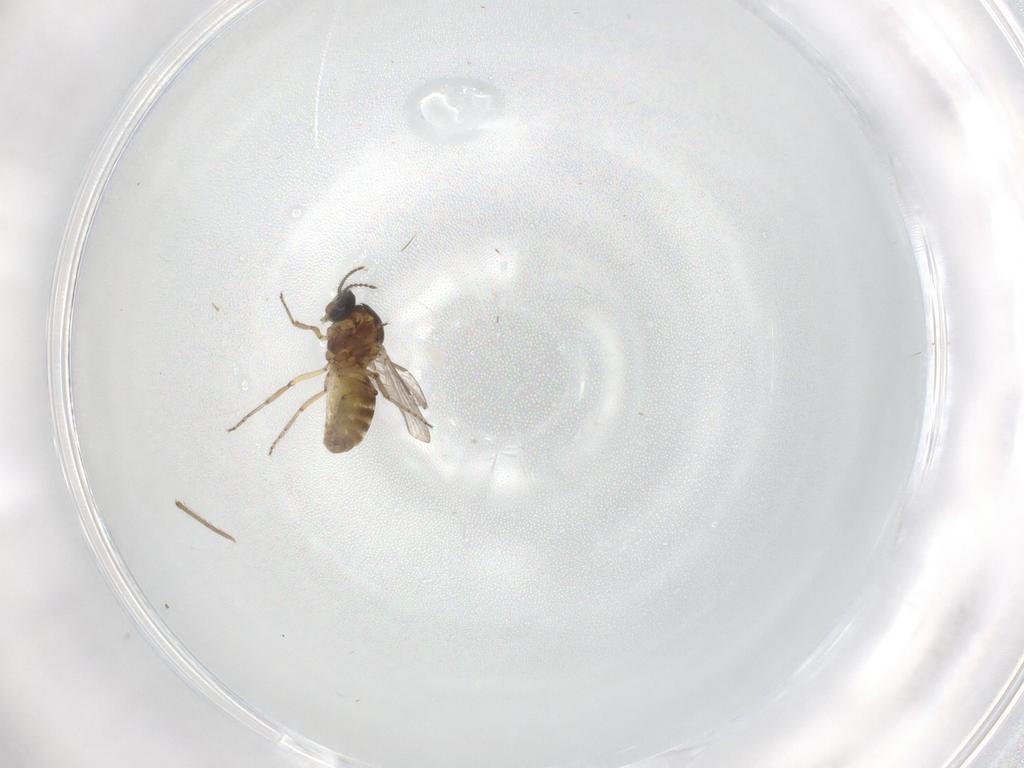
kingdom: Animalia
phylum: Arthropoda
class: Insecta
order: Diptera
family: Ceratopogonidae
